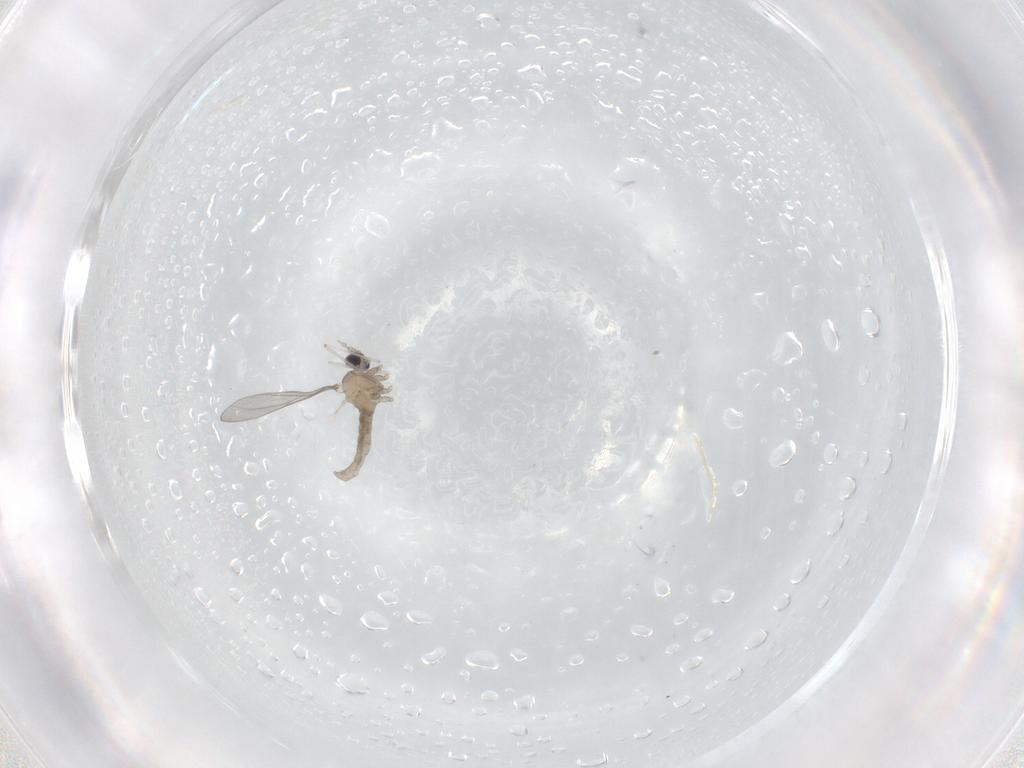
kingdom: Animalia
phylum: Arthropoda
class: Insecta
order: Diptera
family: Cecidomyiidae
